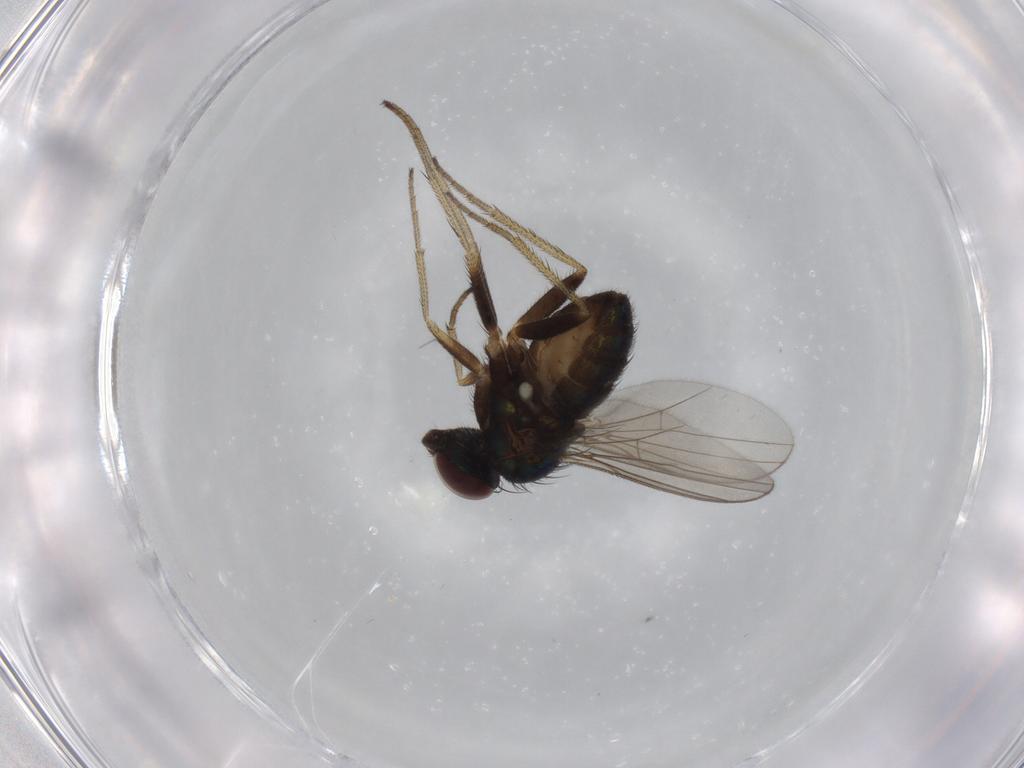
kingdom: Animalia
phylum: Arthropoda
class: Insecta
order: Diptera
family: Dolichopodidae
